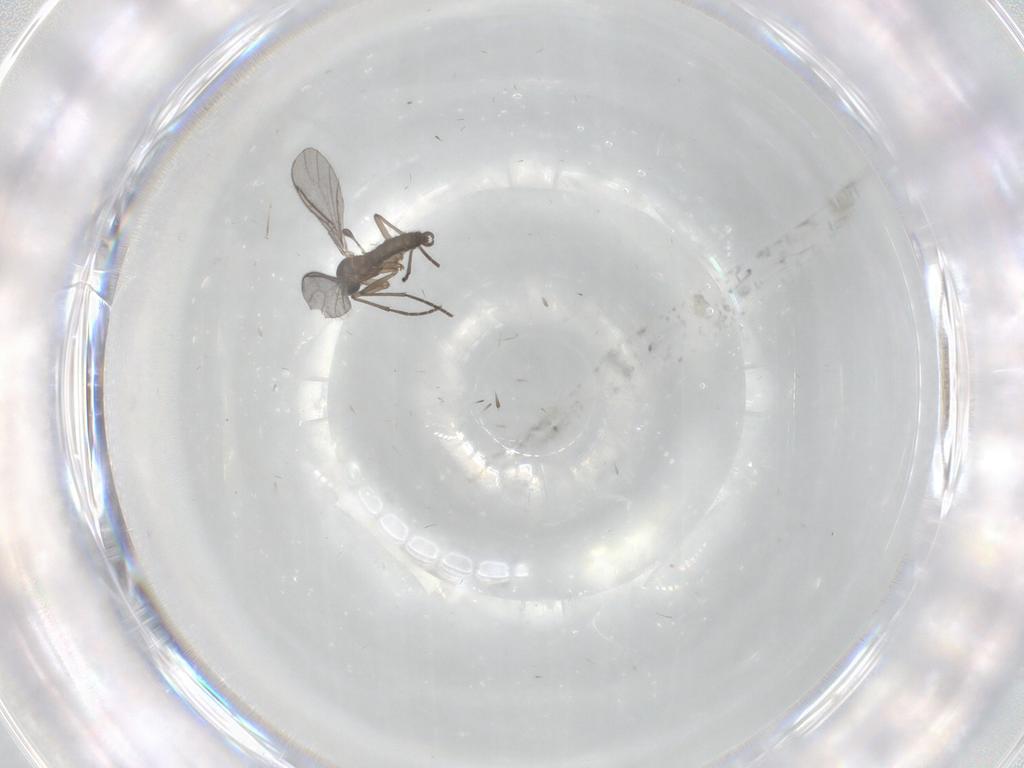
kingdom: Animalia
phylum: Arthropoda
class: Insecta
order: Diptera
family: Sciaridae
